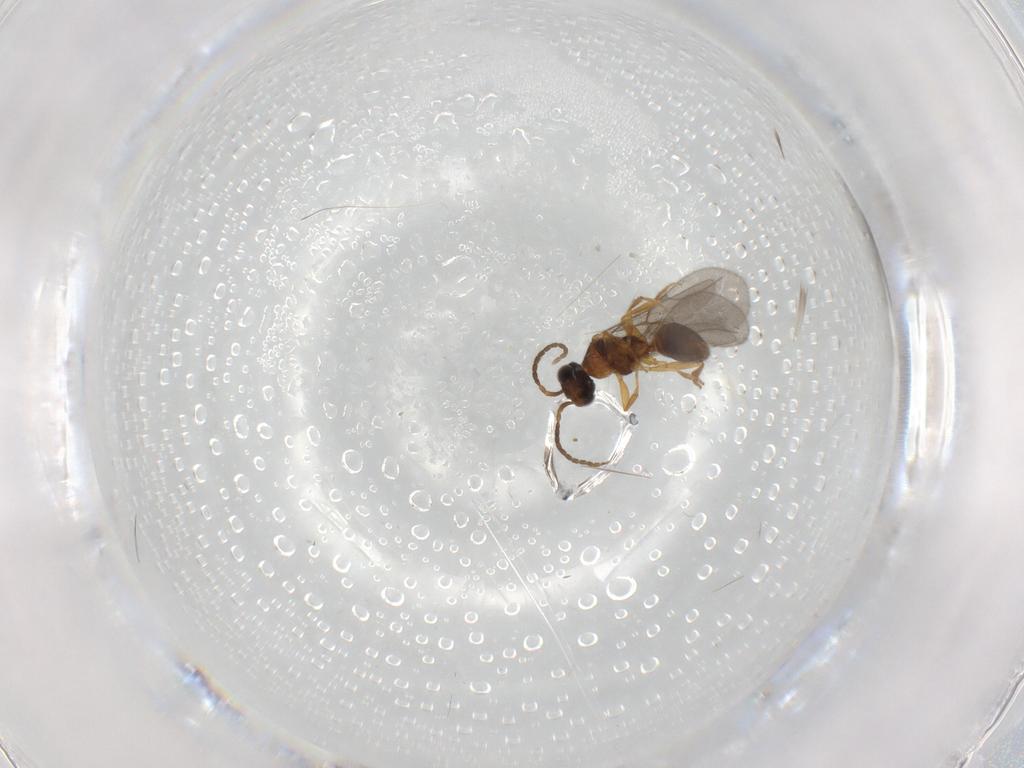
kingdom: Animalia
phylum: Arthropoda
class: Insecta
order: Hymenoptera
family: Bethylidae
